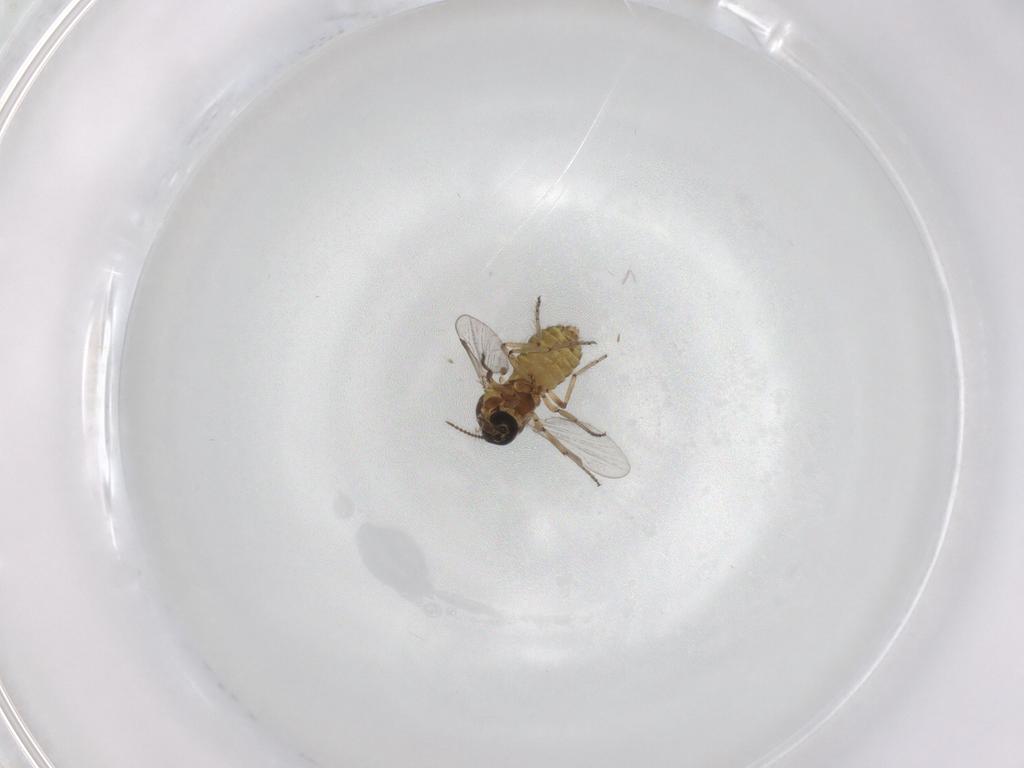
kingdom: Animalia
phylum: Arthropoda
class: Insecta
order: Diptera
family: Ceratopogonidae
